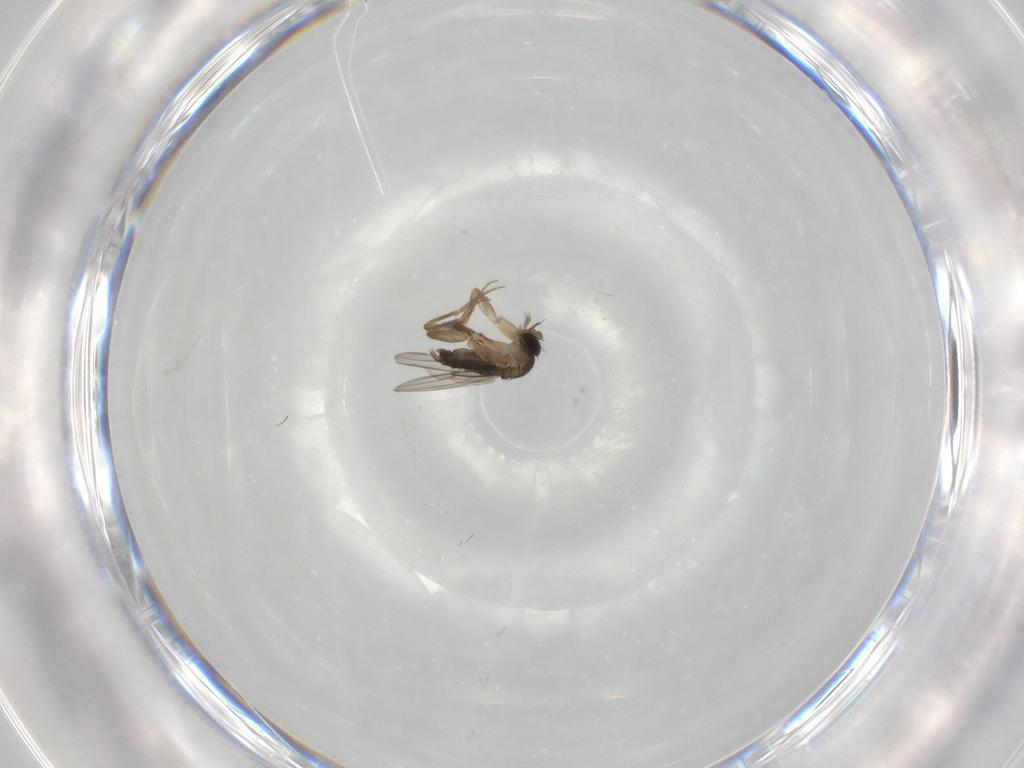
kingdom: Animalia
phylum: Arthropoda
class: Insecta
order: Diptera
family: Phoridae
